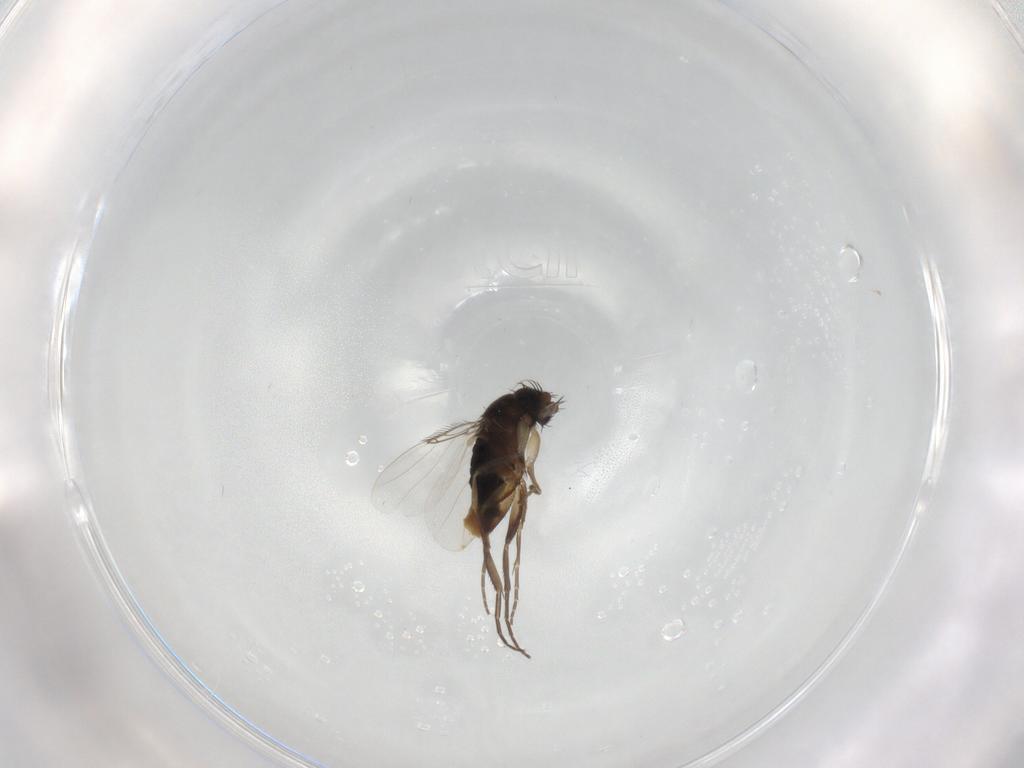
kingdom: Animalia
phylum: Arthropoda
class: Insecta
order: Diptera
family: Phoridae
